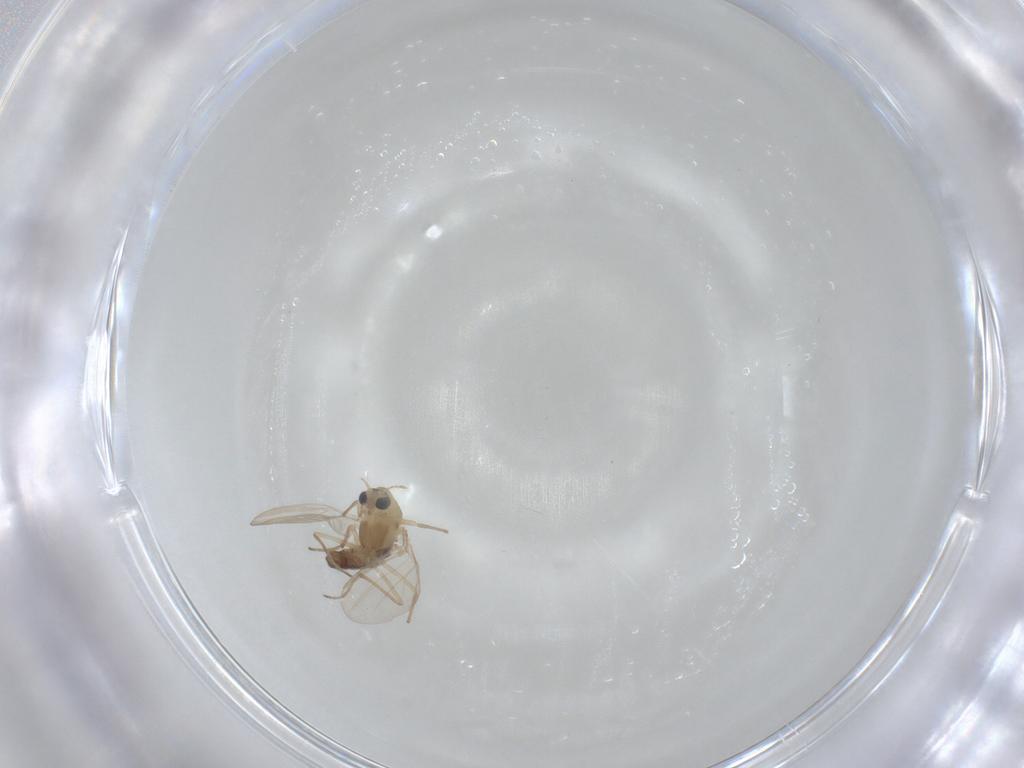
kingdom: Animalia
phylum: Arthropoda
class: Insecta
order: Diptera
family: Chironomidae
